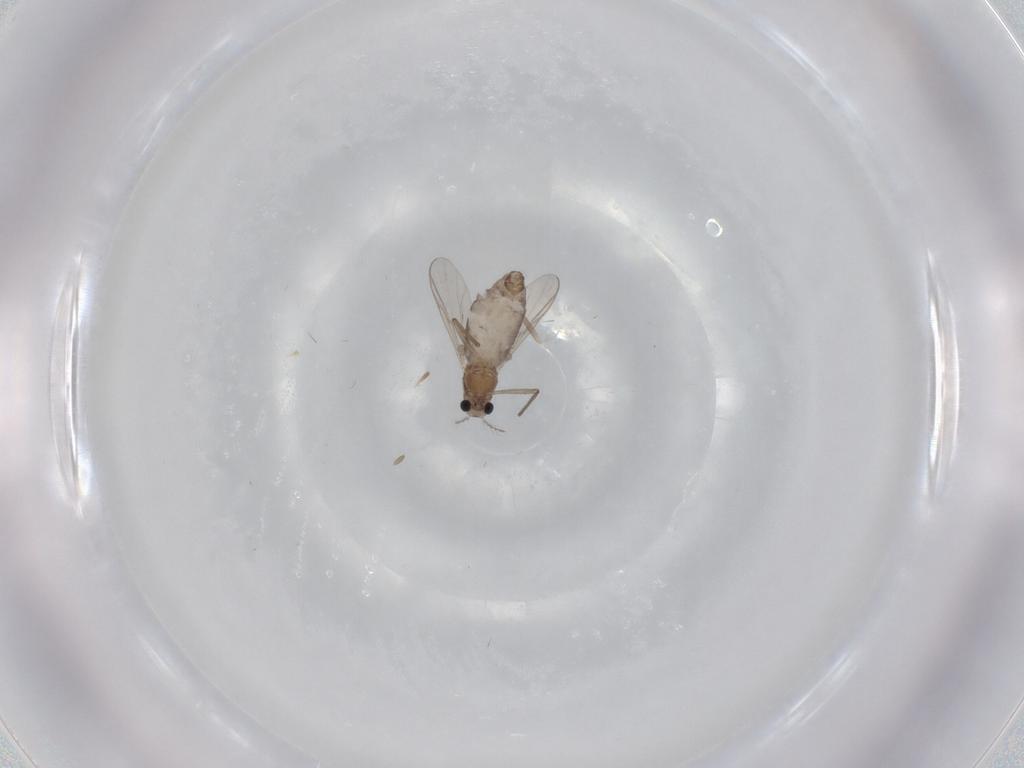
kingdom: Animalia
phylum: Arthropoda
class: Insecta
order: Diptera
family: Chironomidae
